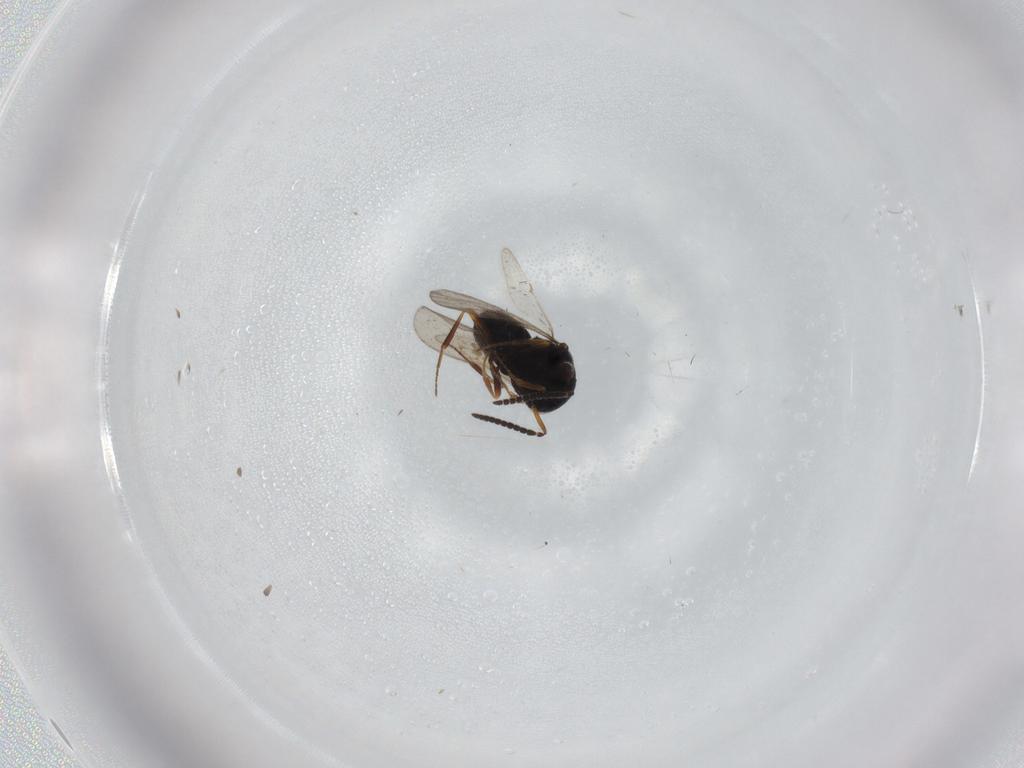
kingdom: Animalia
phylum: Arthropoda
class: Insecta
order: Hymenoptera
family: Scelionidae
